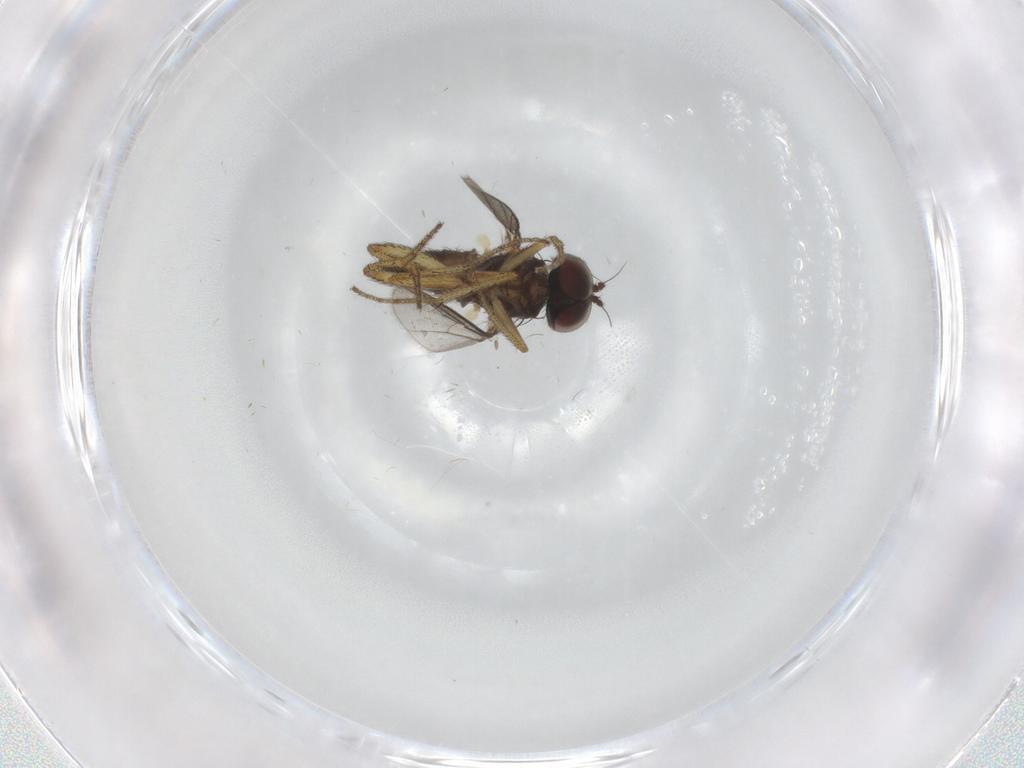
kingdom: Animalia
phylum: Arthropoda
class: Insecta
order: Diptera
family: Dolichopodidae
